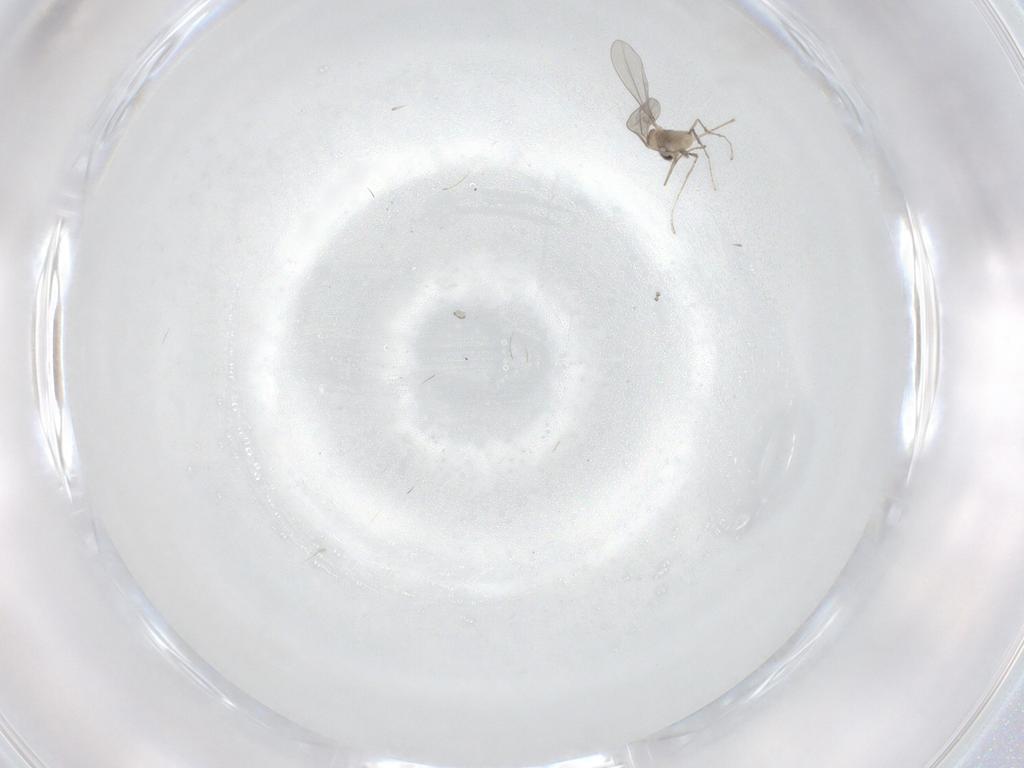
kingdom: Animalia
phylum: Arthropoda
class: Insecta
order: Diptera
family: Cecidomyiidae
